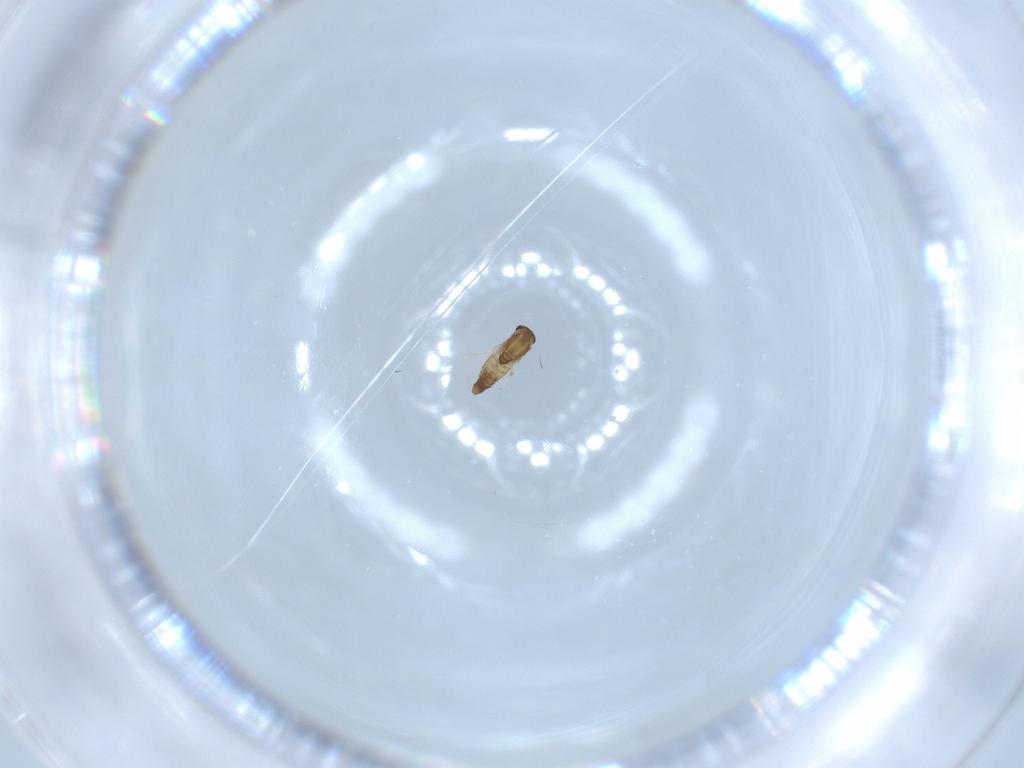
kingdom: Animalia
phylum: Arthropoda
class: Insecta
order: Diptera
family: Chironomidae
